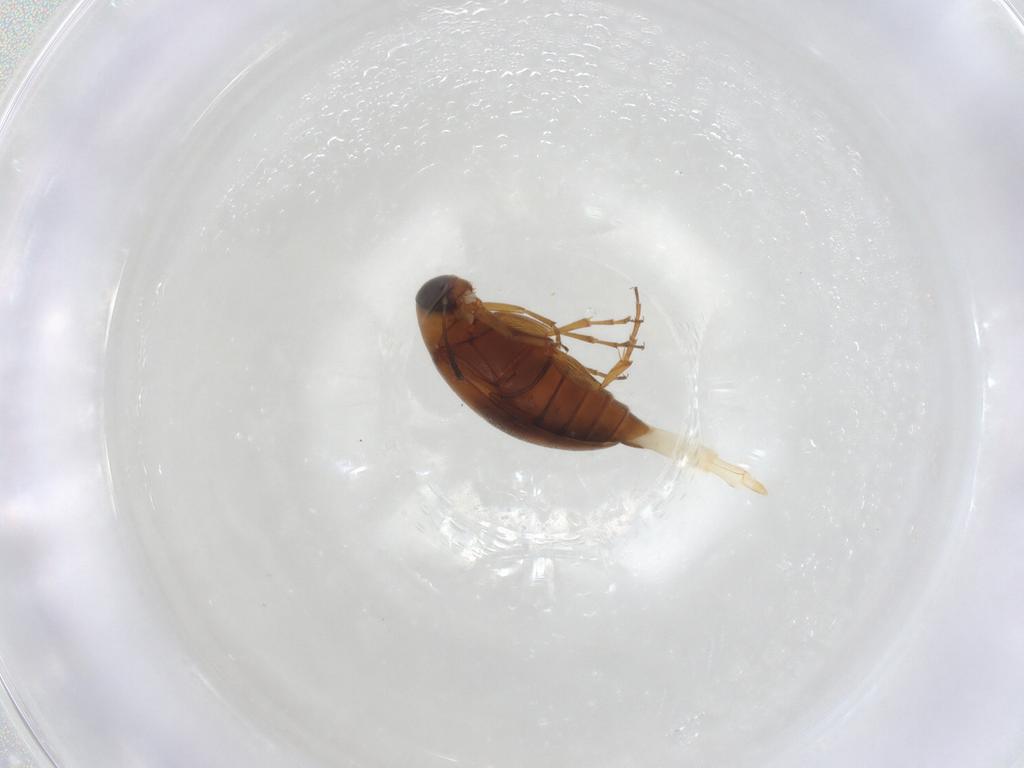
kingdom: Animalia
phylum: Arthropoda
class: Insecta
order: Coleoptera
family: Scraptiidae
